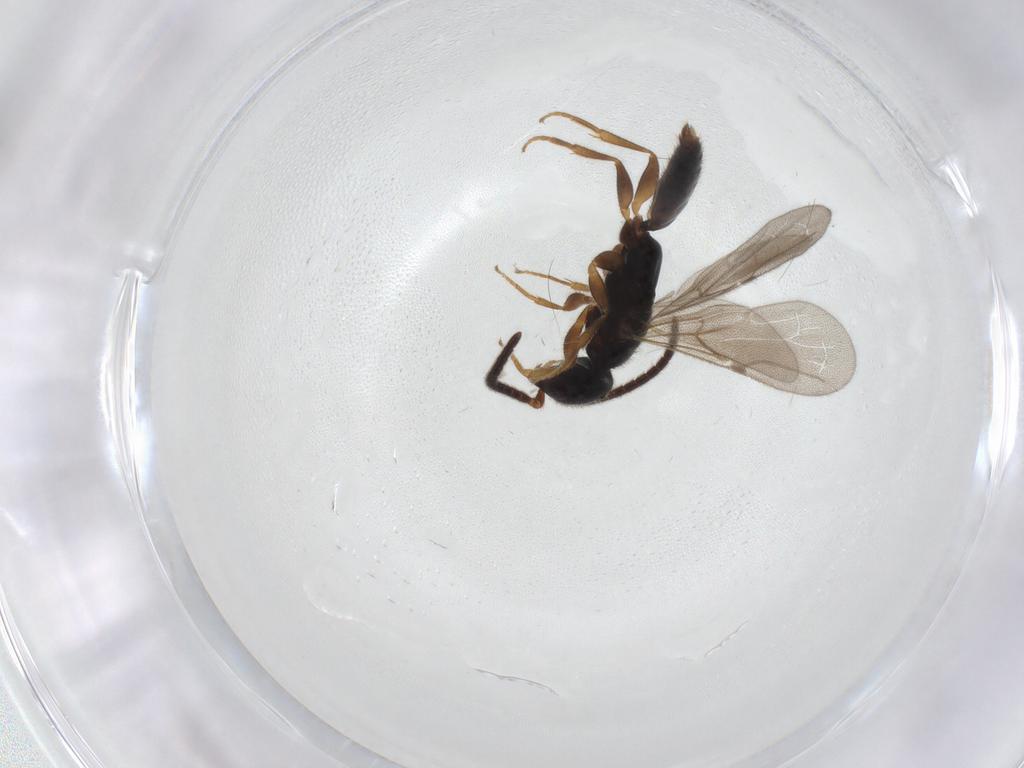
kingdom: Animalia
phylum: Arthropoda
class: Insecta
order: Hymenoptera
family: Bethylidae
